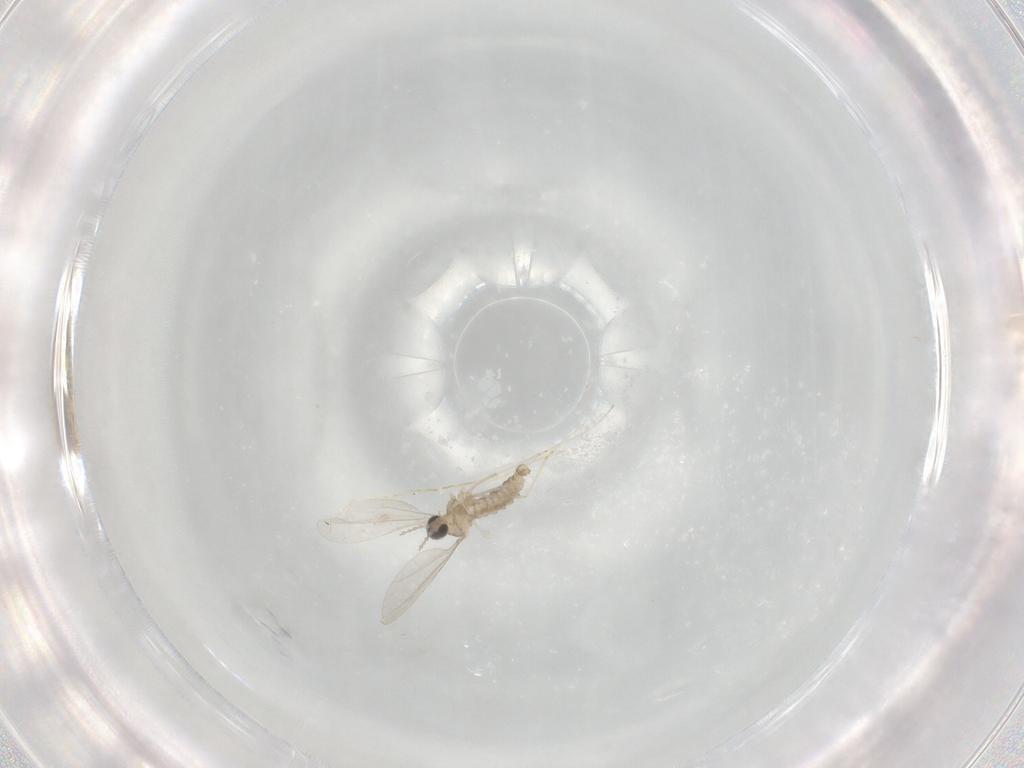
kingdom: Animalia
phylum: Arthropoda
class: Insecta
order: Diptera
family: Cecidomyiidae
